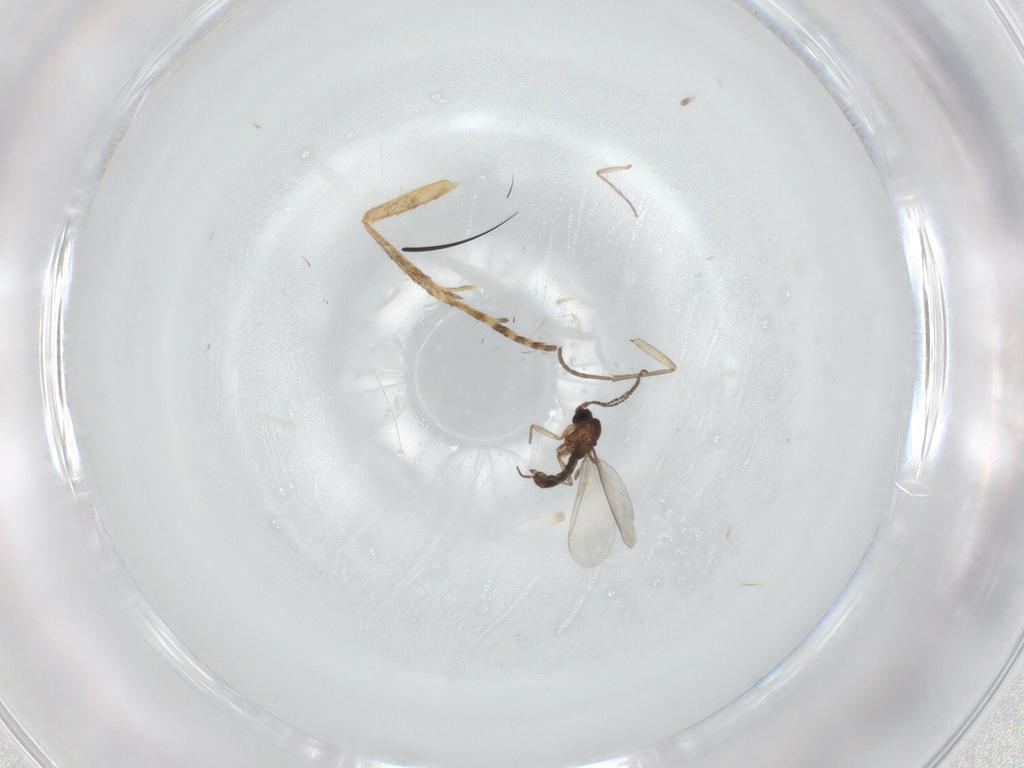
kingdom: Animalia
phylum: Arthropoda
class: Insecta
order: Diptera
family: Sciaridae
